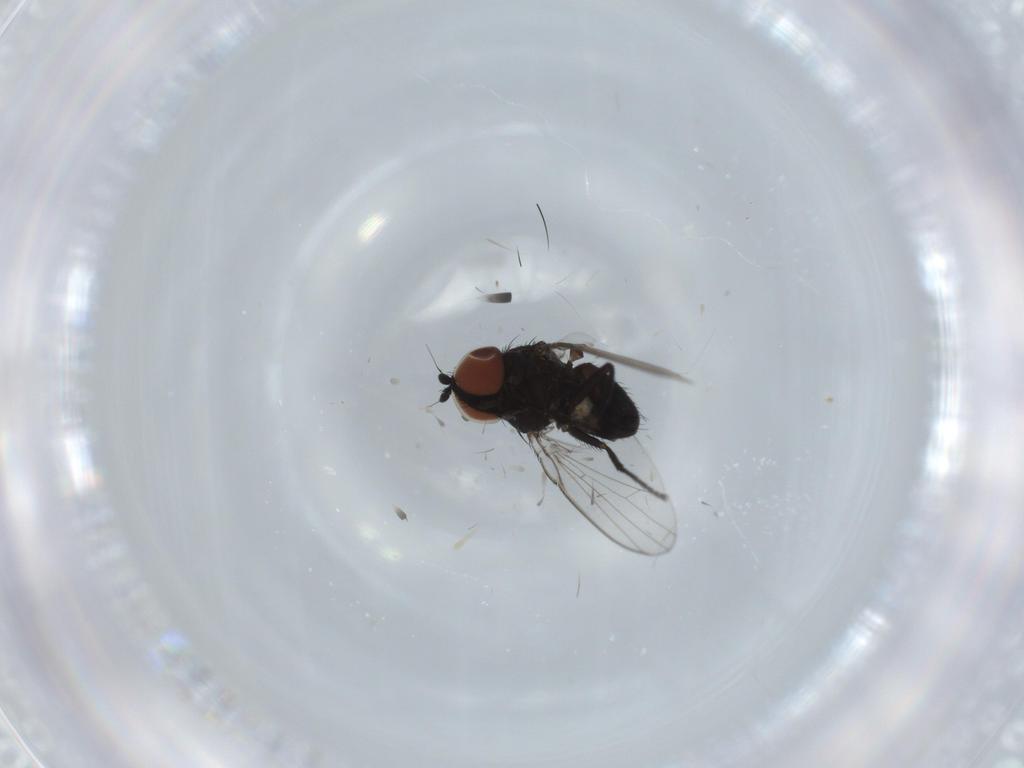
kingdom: Animalia
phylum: Arthropoda
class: Insecta
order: Diptera
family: Milichiidae
